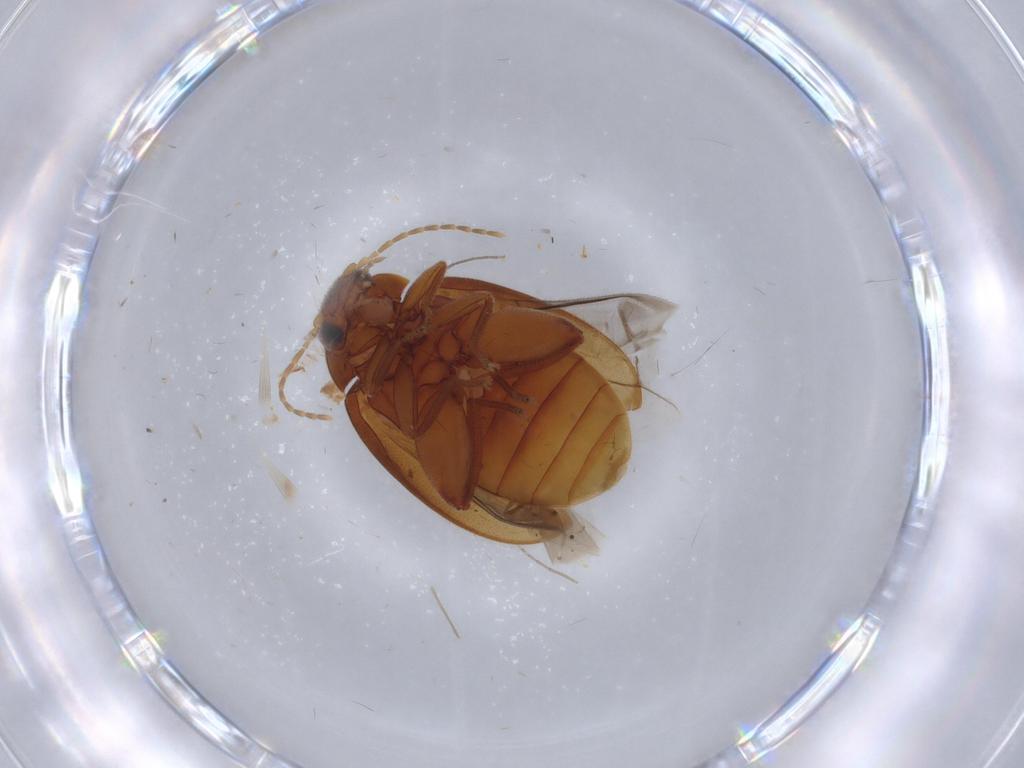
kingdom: Animalia
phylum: Arthropoda
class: Insecta
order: Coleoptera
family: Scirtidae
